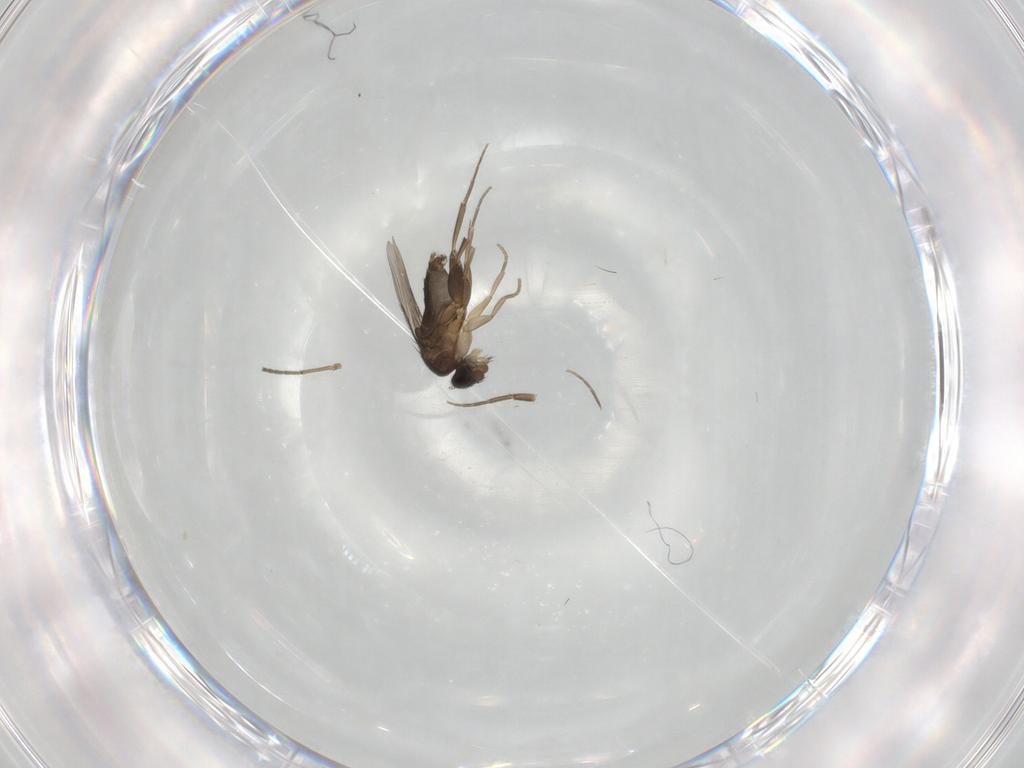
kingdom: Animalia
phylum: Arthropoda
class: Insecta
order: Diptera
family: Phoridae
